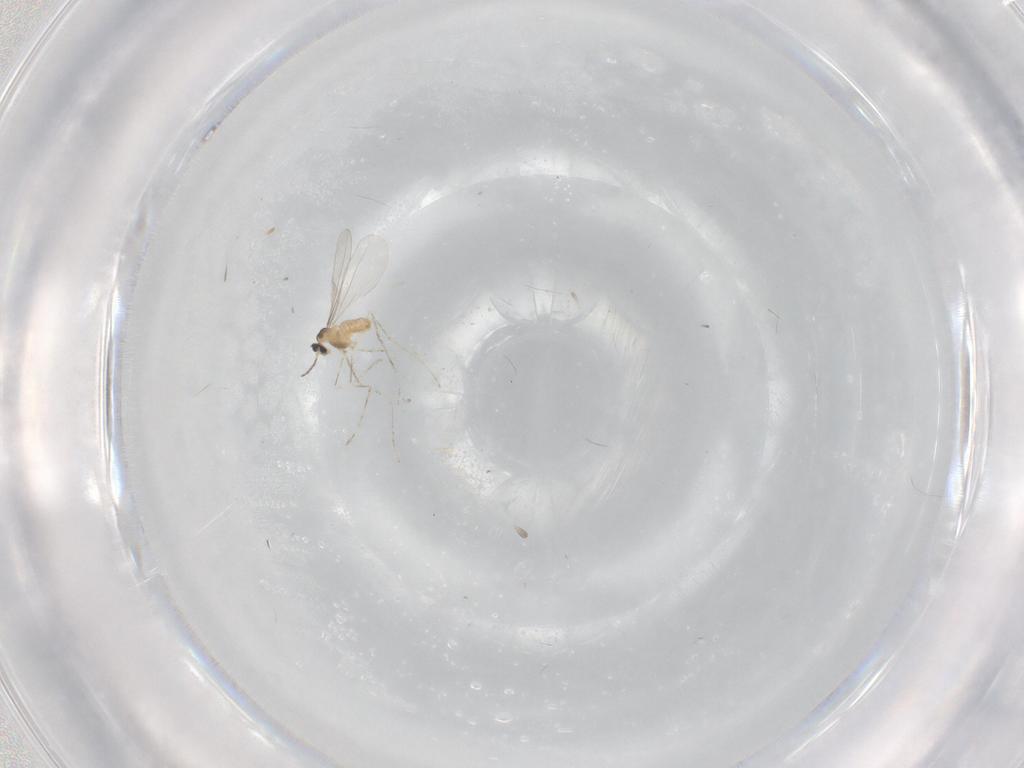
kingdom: Animalia
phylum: Arthropoda
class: Insecta
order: Diptera
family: Cecidomyiidae
